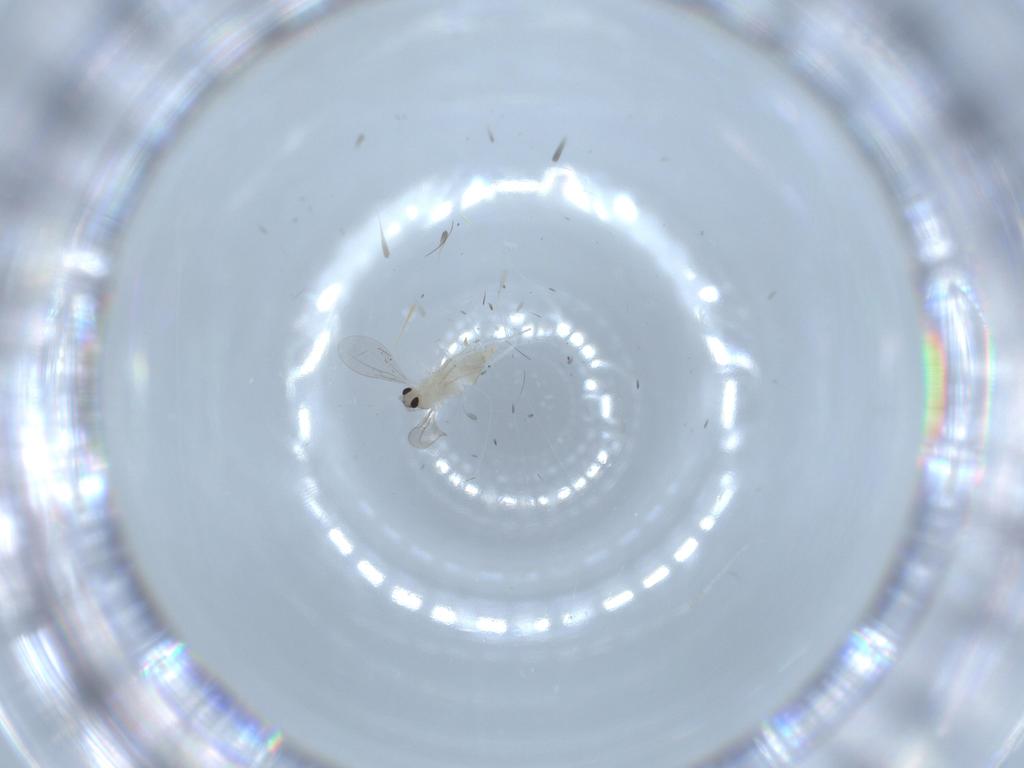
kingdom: Animalia
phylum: Arthropoda
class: Insecta
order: Diptera
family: Cecidomyiidae
